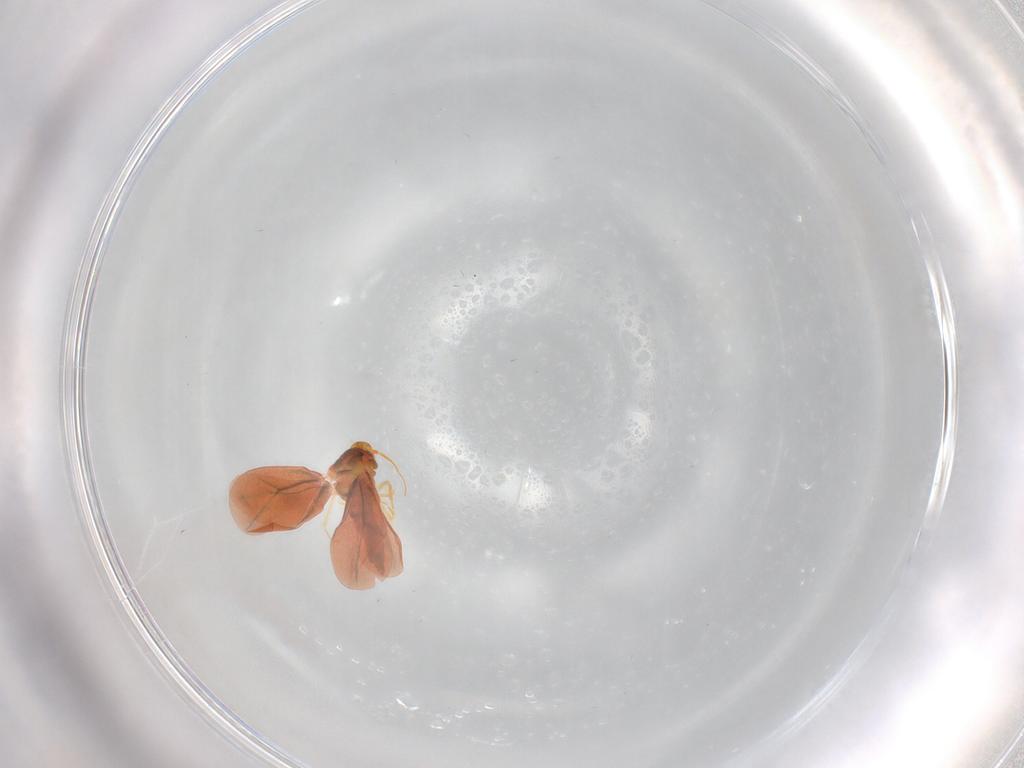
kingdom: Animalia
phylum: Arthropoda
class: Insecta
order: Hemiptera
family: Cicadellidae
